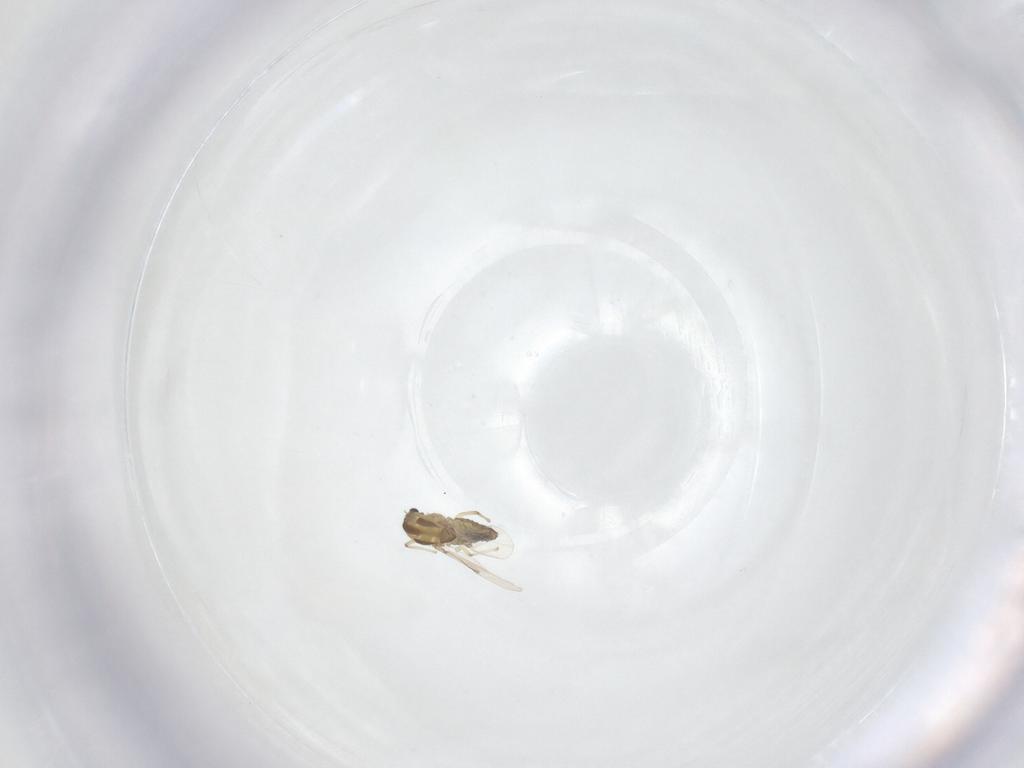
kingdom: Animalia
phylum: Arthropoda
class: Insecta
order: Diptera
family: Chironomidae
